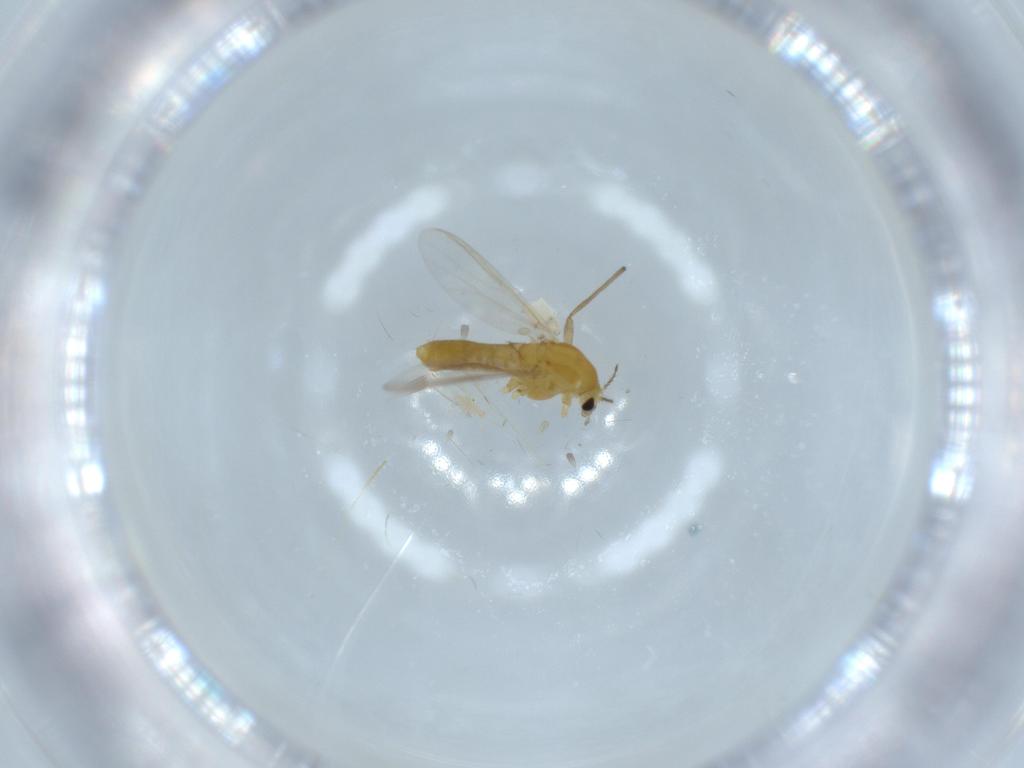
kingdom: Animalia
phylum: Arthropoda
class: Insecta
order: Diptera
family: Chironomidae
